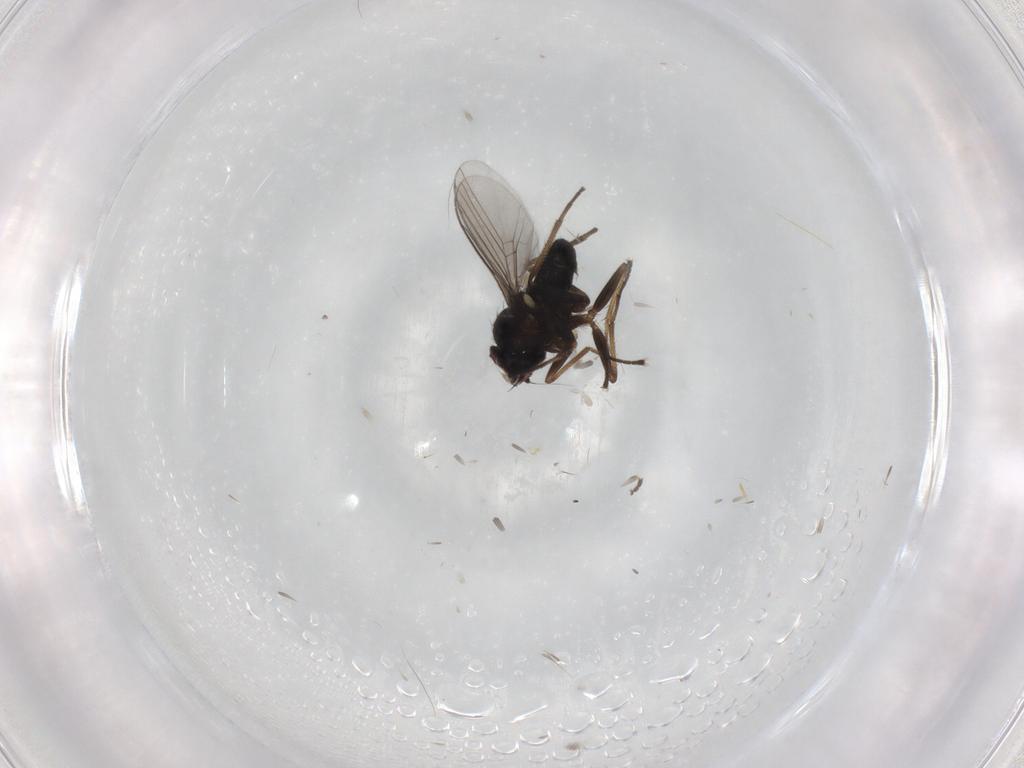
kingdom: Animalia
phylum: Arthropoda
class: Insecta
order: Diptera
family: Dolichopodidae
